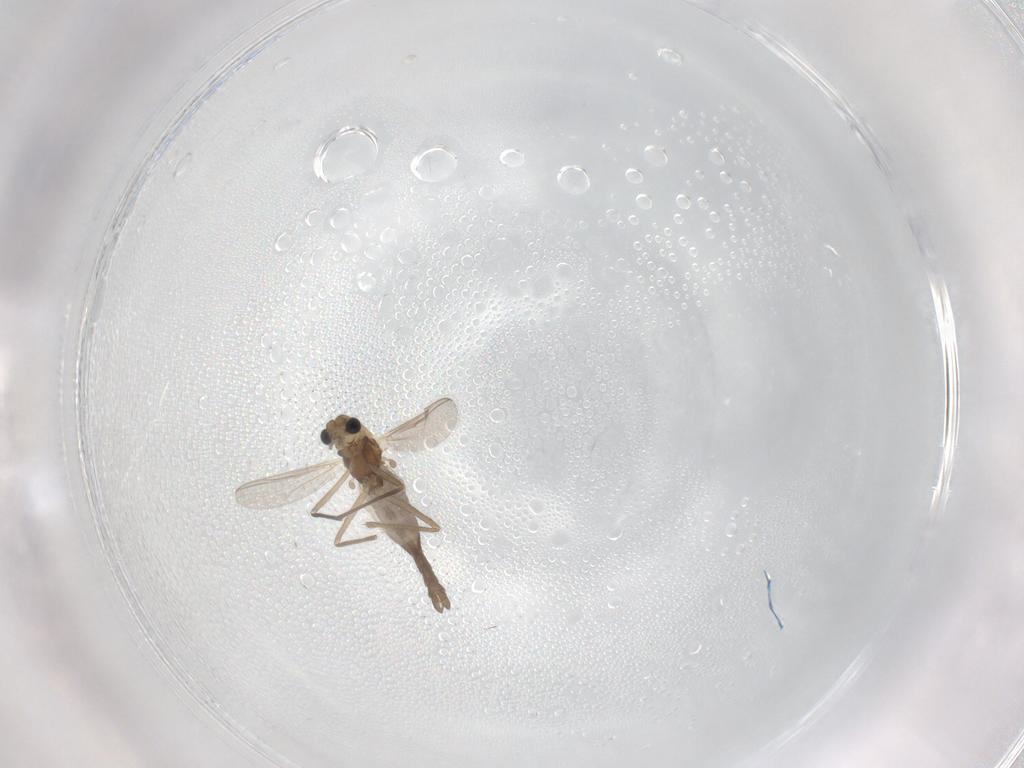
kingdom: Animalia
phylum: Arthropoda
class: Insecta
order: Diptera
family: Chironomidae
